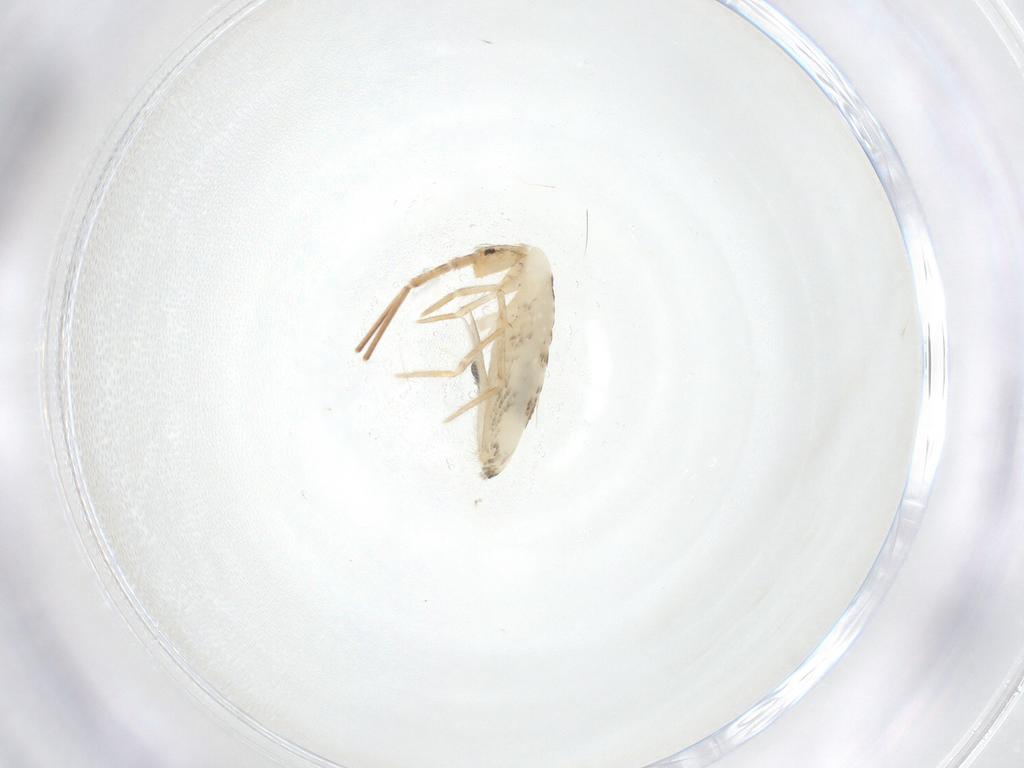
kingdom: Animalia
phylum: Arthropoda
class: Collembola
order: Entomobryomorpha
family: Entomobryidae
